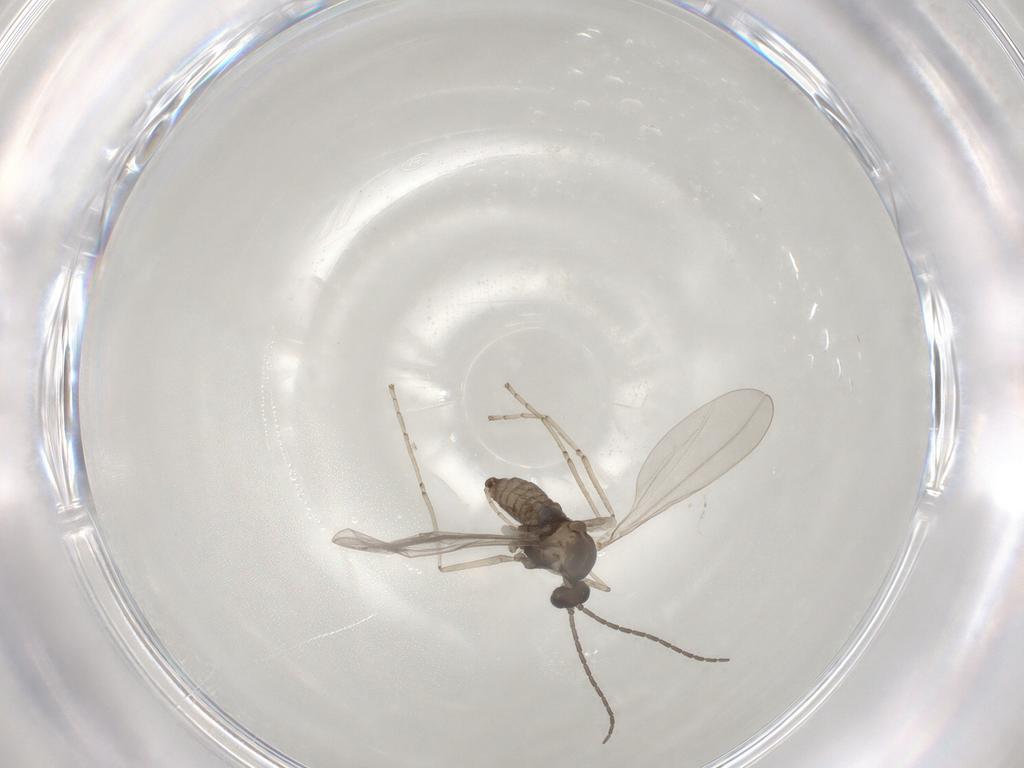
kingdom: Animalia
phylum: Arthropoda
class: Insecta
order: Diptera
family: Cecidomyiidae
